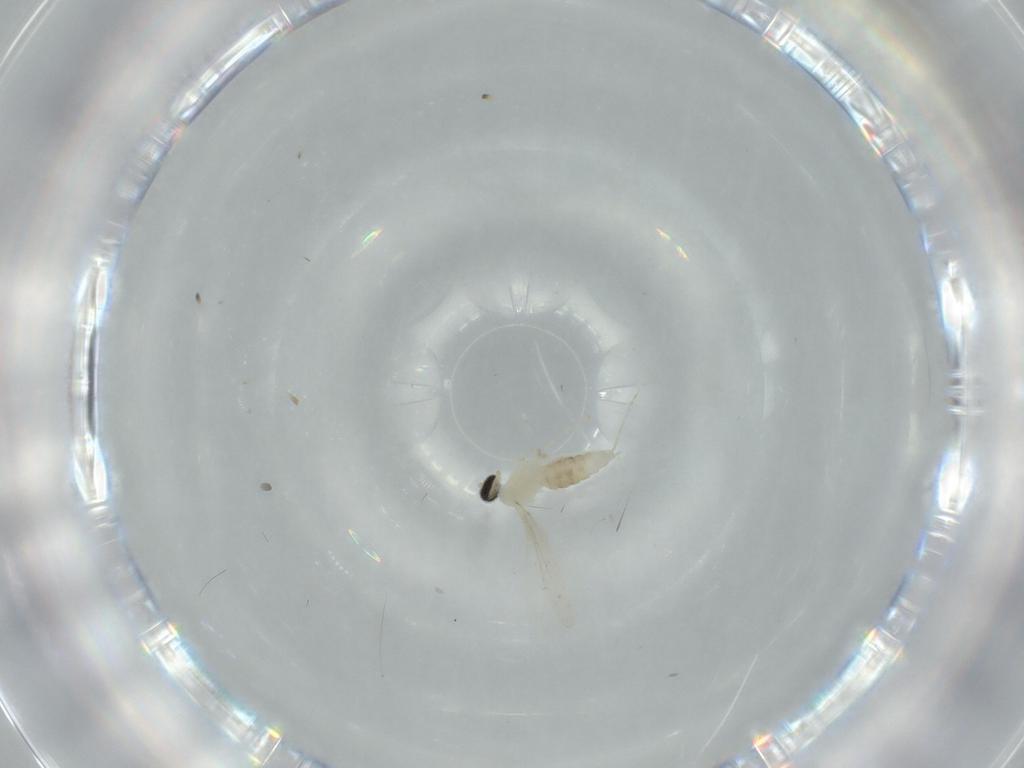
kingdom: Animalia
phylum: Arthropoda
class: Insecta
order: Diptera
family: Cecidomyiidae
